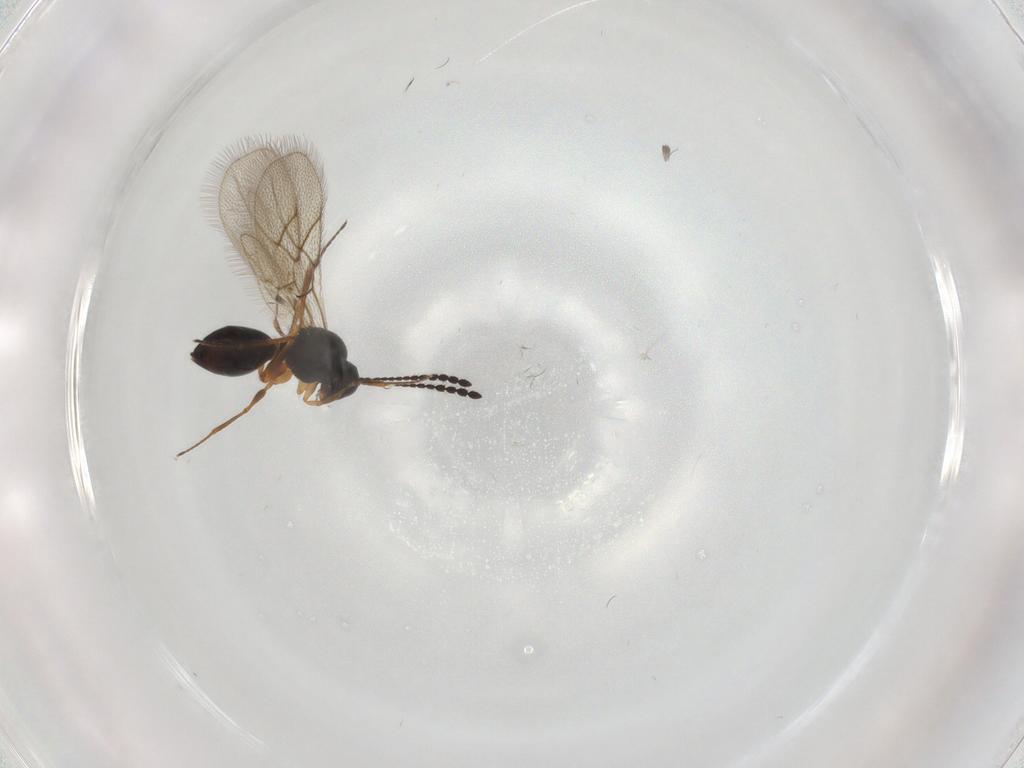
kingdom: Animalia
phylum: Arthropoda
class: Insecta
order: Hymenoptera
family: Figitidae
